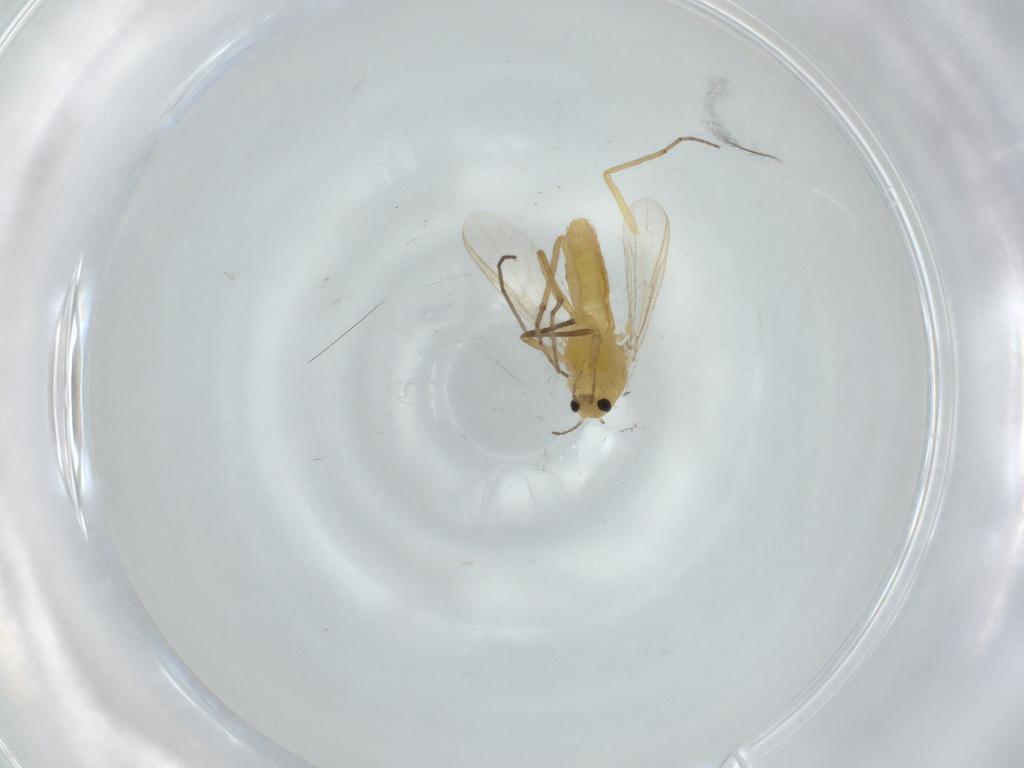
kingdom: Animalia
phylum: Arthropoda
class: Insecta
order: Diptera
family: Chironomidae
